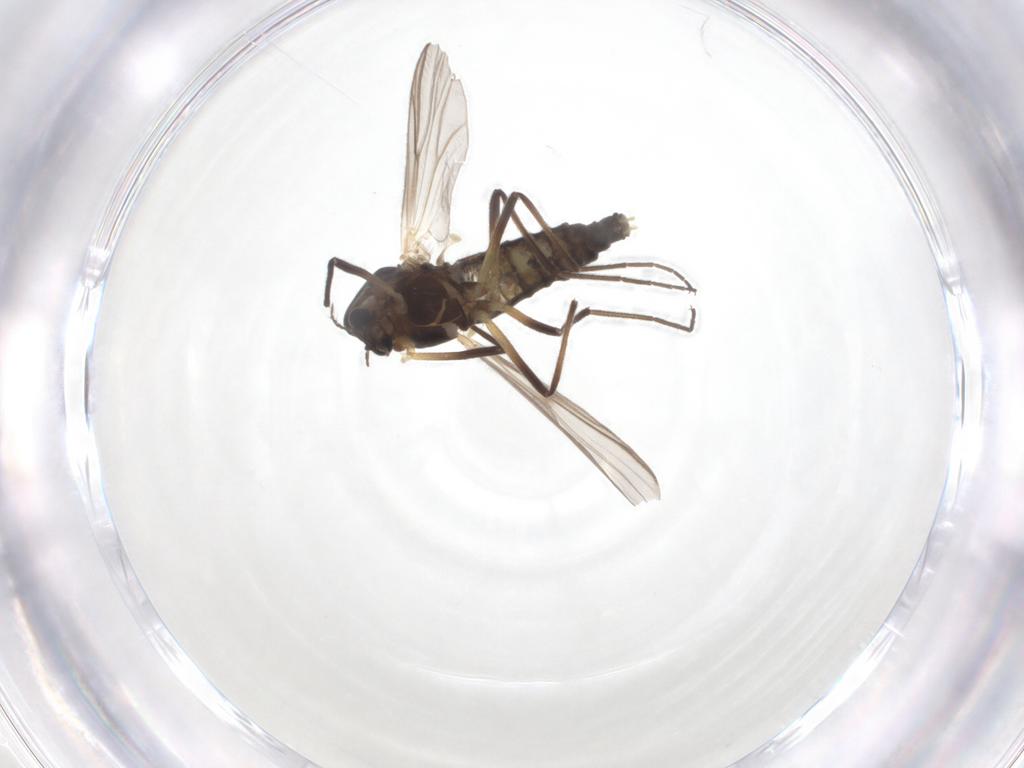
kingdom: Animalia
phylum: Arthropoda
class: Insecta
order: Diptera
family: Chironomidae
